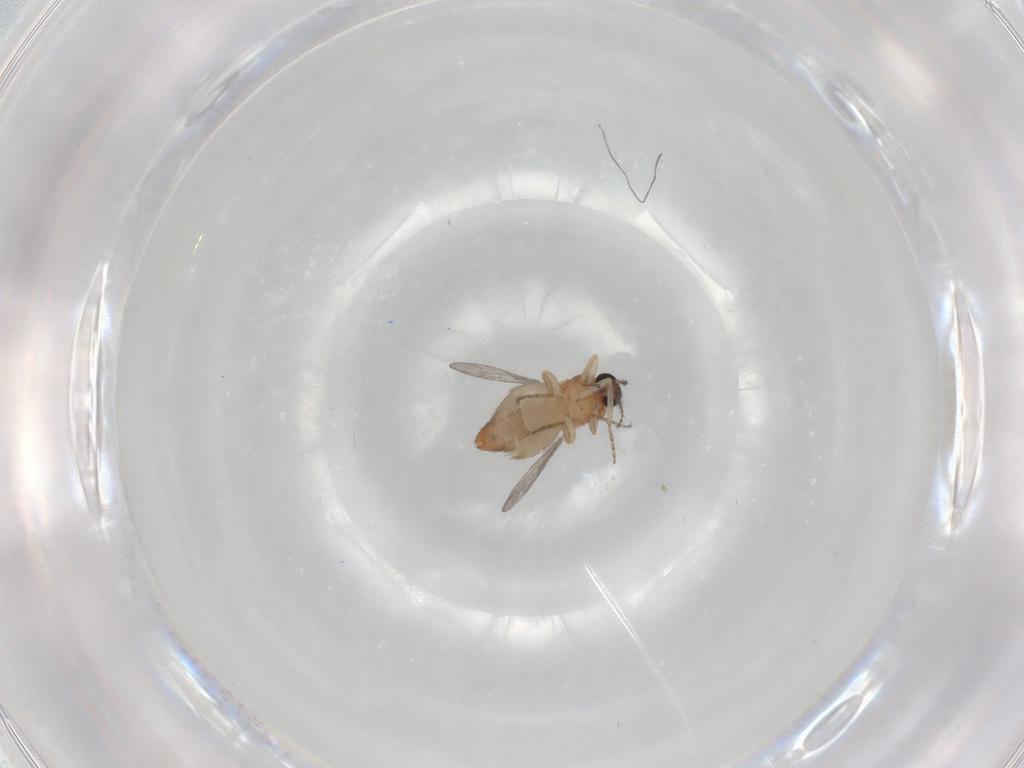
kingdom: Animalia
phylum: Arthropoda
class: Insecta
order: Diptera
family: Ceratopogonidae
